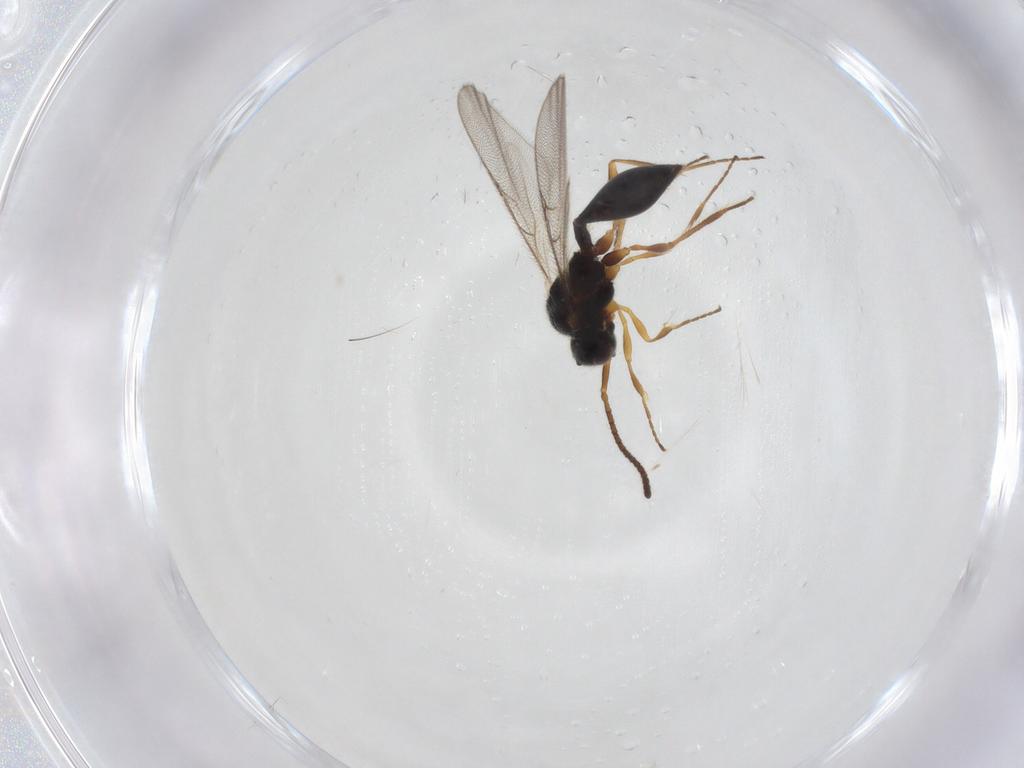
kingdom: Animalia
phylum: Arthropoda
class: Insecta
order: Hymenoptera
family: Diapriidae
